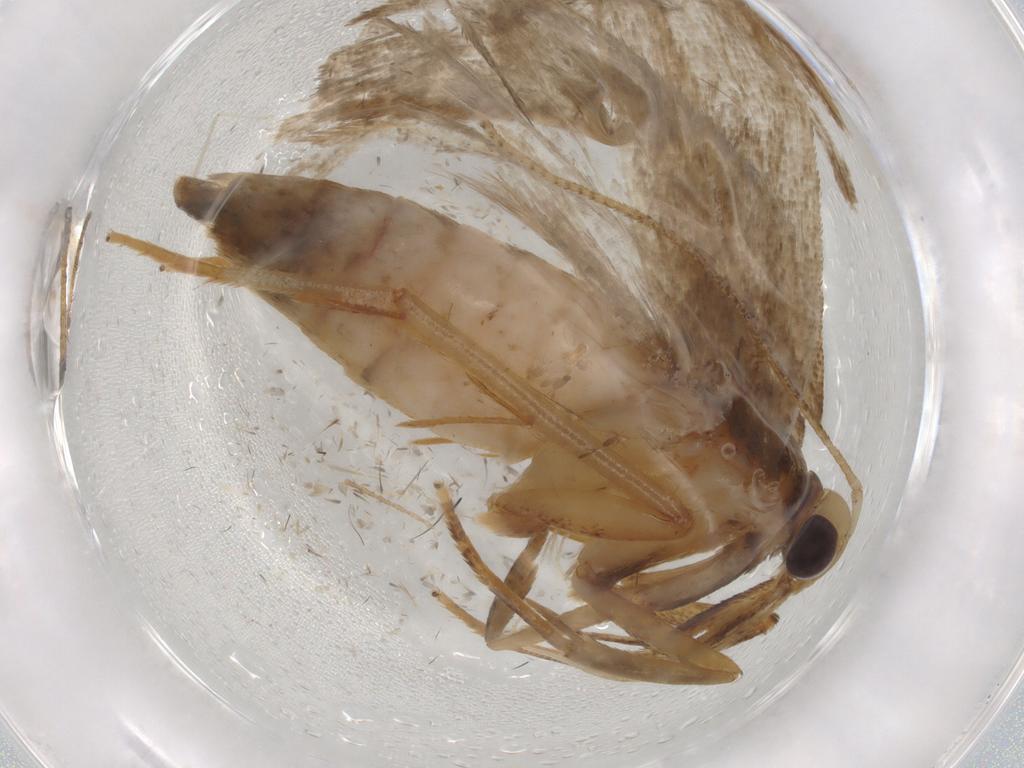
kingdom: Animalia
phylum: Arthropoda
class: Insecta
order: Lepidoptera
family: Autostichidae
